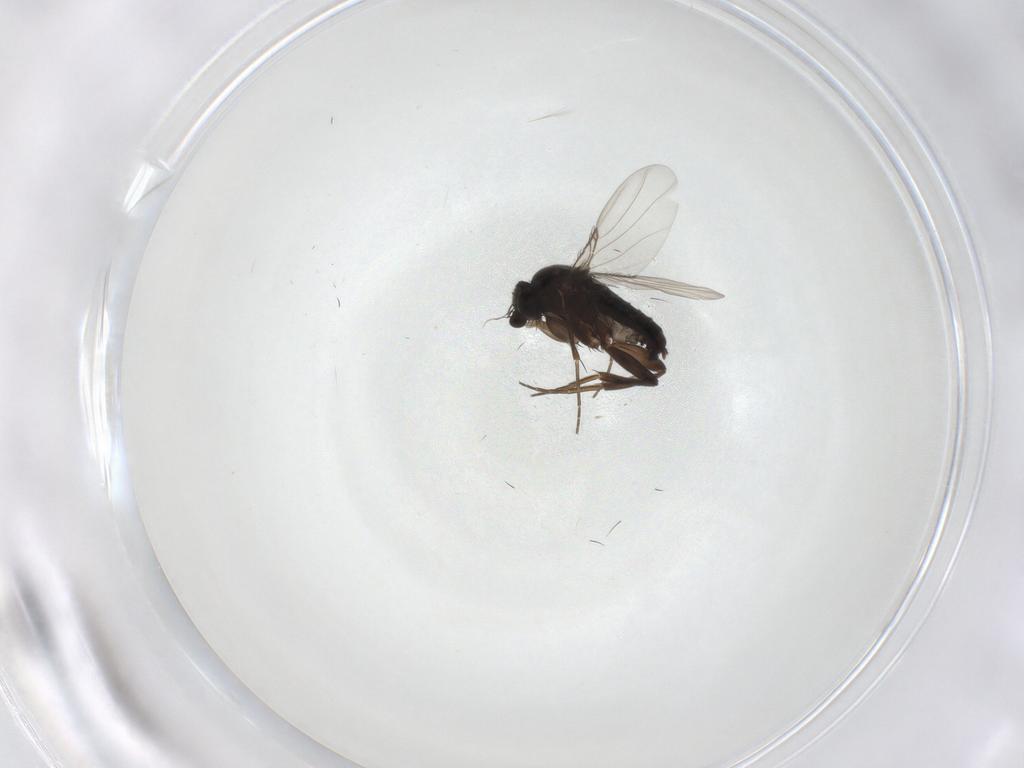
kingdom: Animalia
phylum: Arthropoda
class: Insecta
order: Diptera
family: Phoridae
